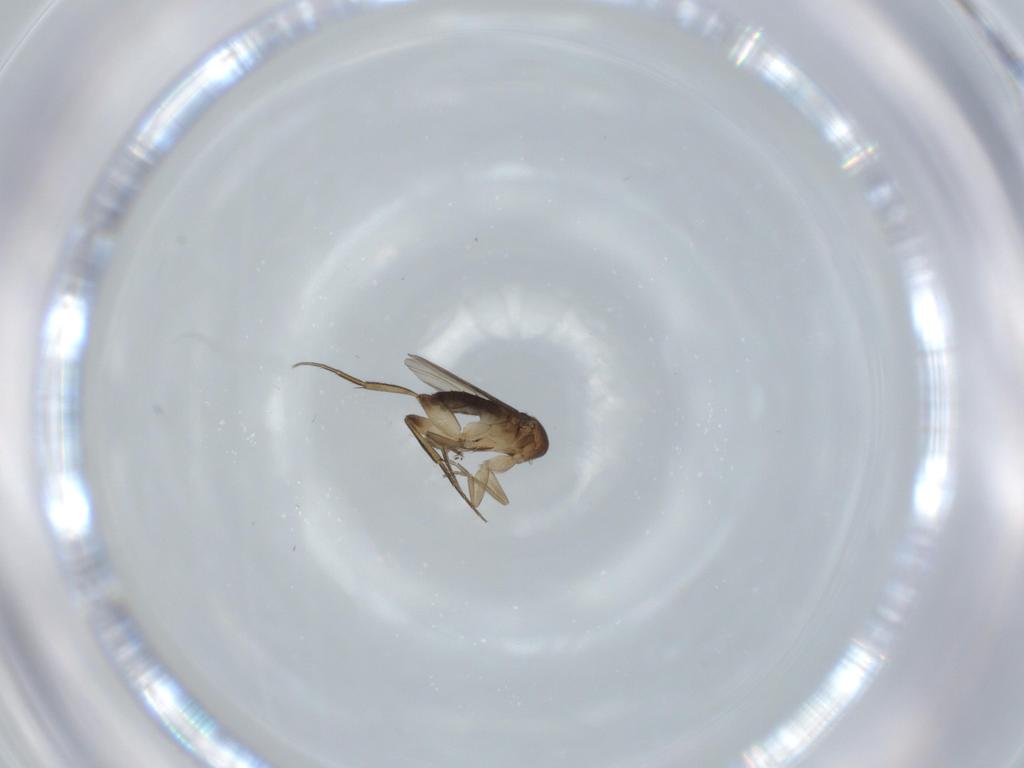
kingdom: Animalia
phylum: Arthropoda
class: Insecta
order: Diptera
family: Phoridae
